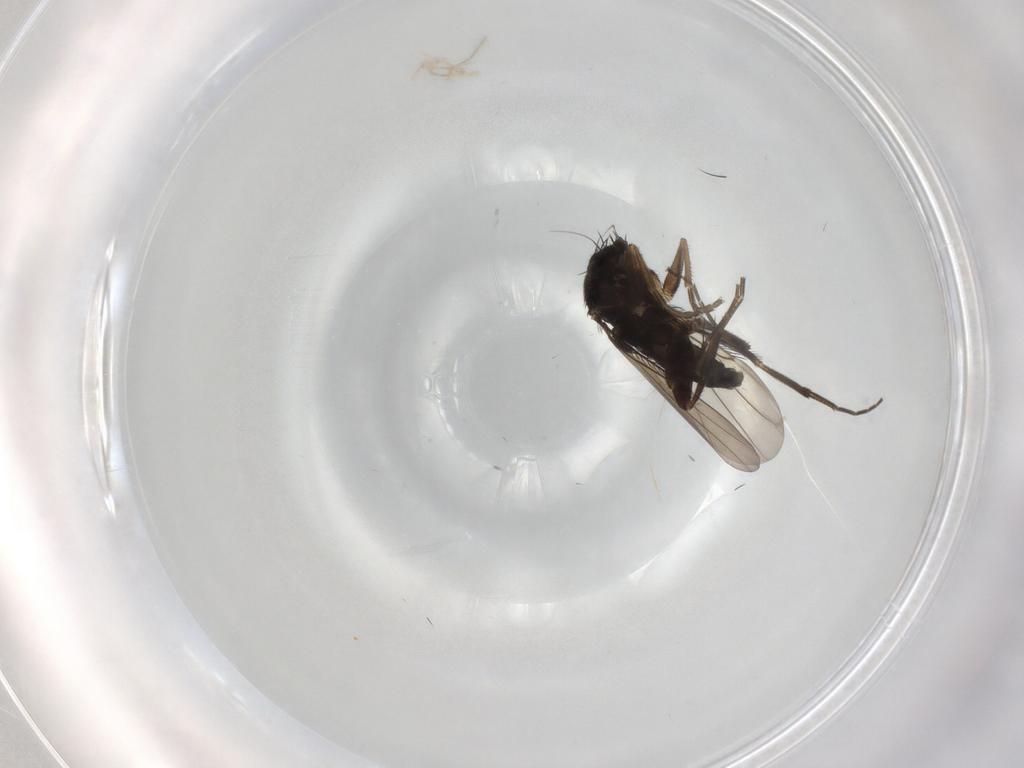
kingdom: Animalia
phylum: Arthropoda
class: Insecta
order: Diptera
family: Phoridae
